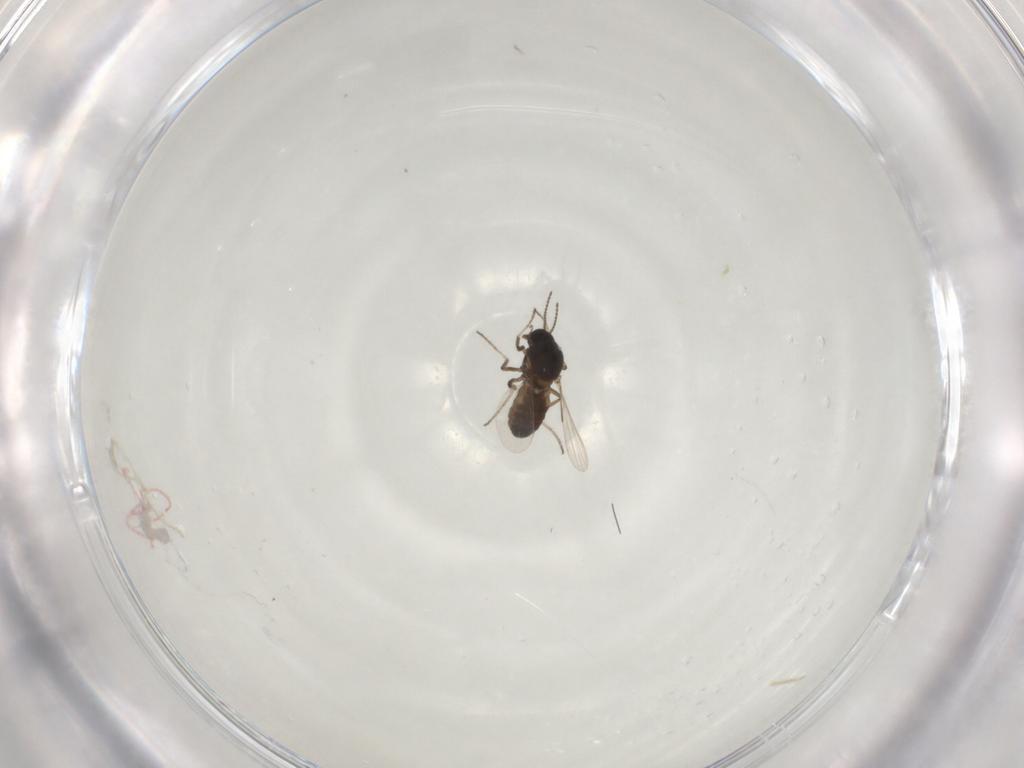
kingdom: Animalia
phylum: Arthropoda
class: Insecta
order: Diptera
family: Ceratopogonidae
